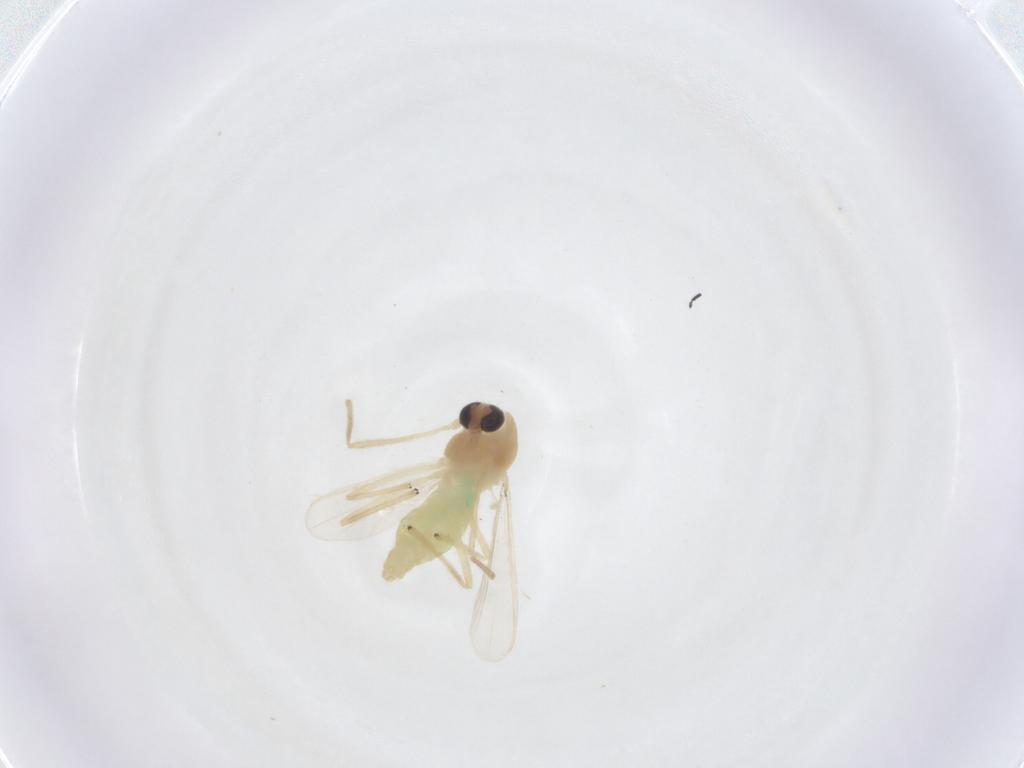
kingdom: Animalia
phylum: Arthropoda
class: Insecta
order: Diptera
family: Chironomidae
